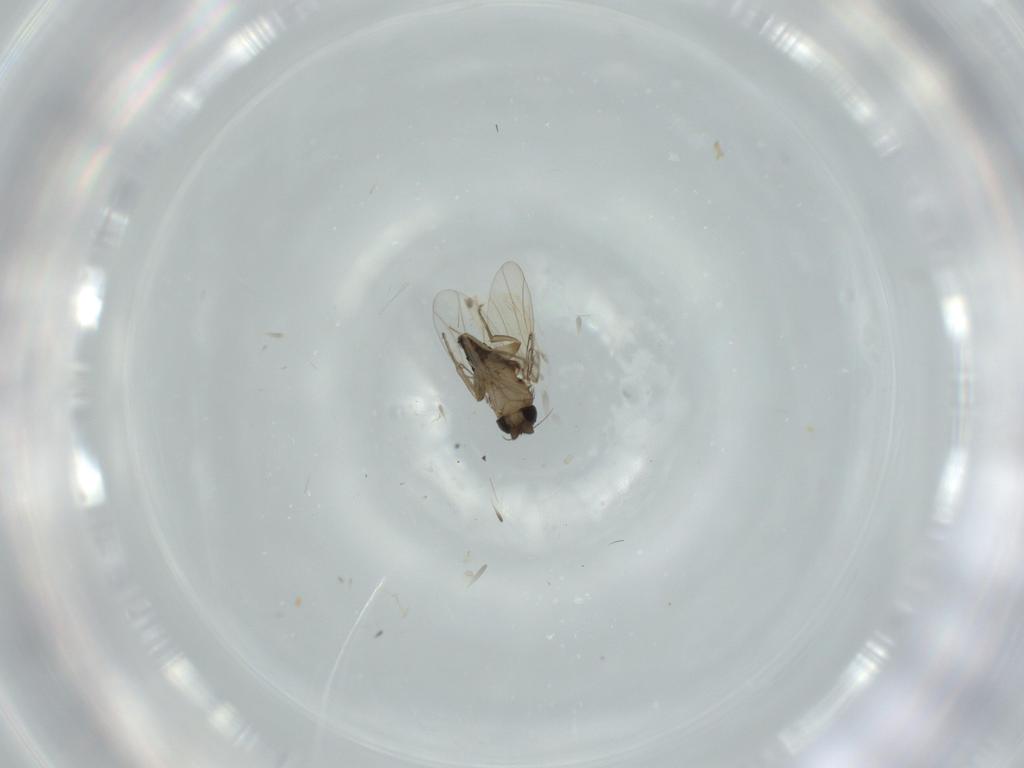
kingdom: Animalia
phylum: Arthropoda
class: Insecta
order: Diptera
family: Phoridae
